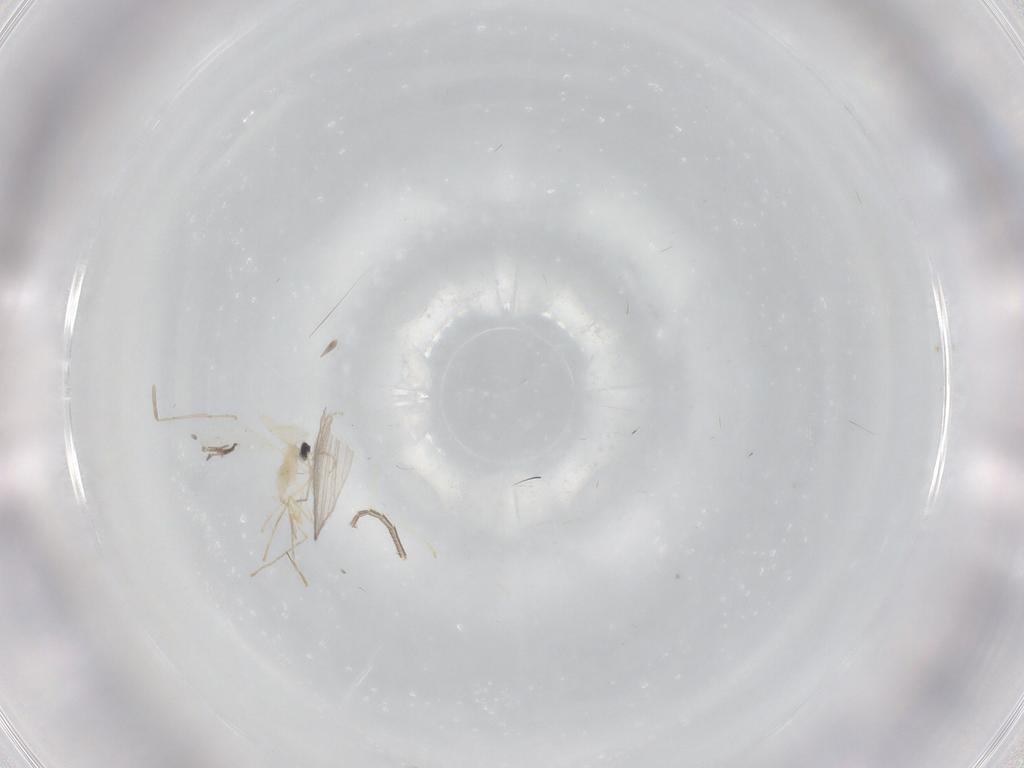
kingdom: Animalia
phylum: Arthropoda
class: Insecta
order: Diptera
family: Cecidomyiidae
